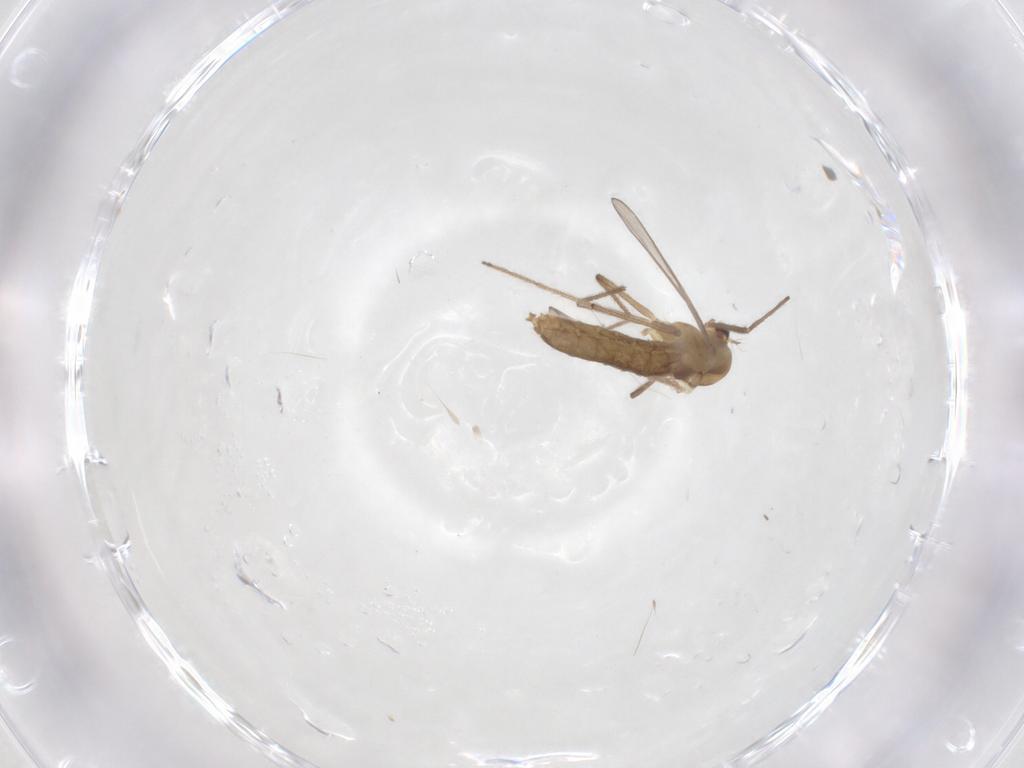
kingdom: Animalia
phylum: Arthropoda
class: Insecta
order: Diptera
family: Chironomidae
